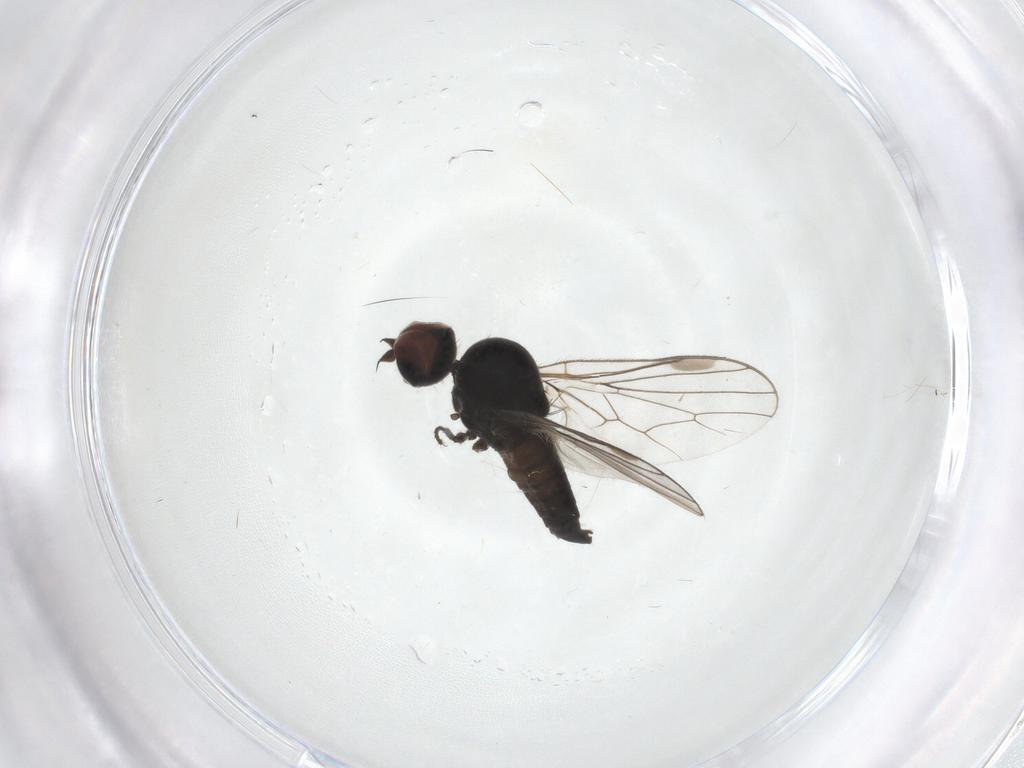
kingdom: Animalia
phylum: Arthropoda
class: Insecta
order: Diptera
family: Hybotidae
